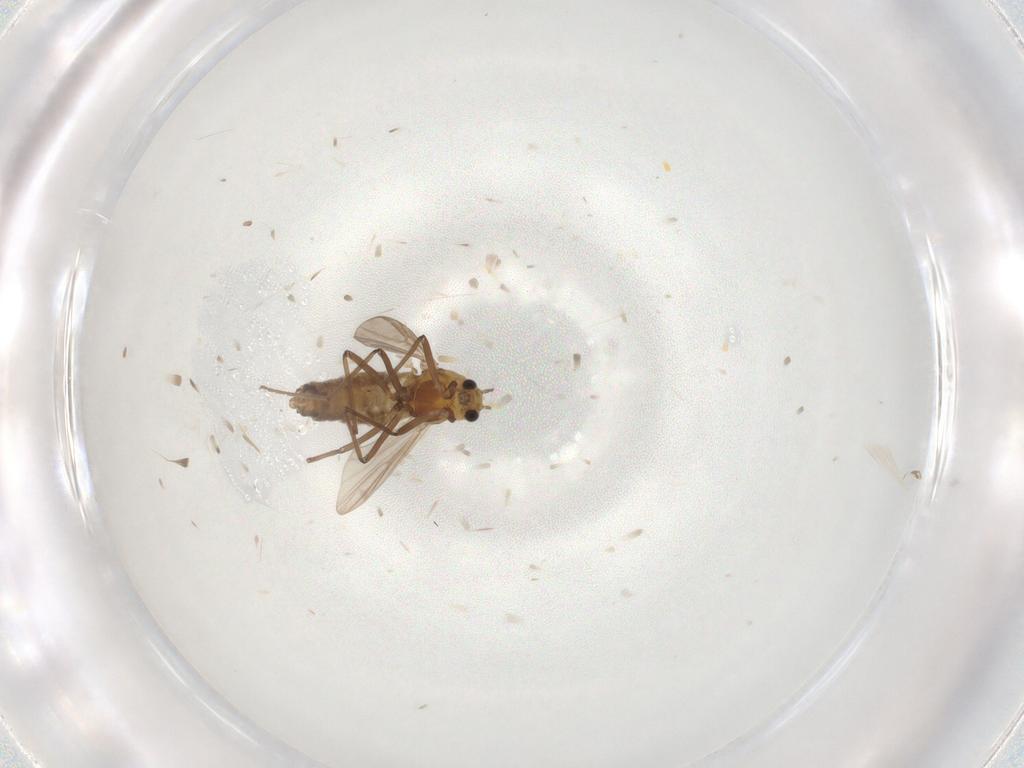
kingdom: Animalia
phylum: Arthropoda
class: Insecta
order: Diptera
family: Chironomidae
